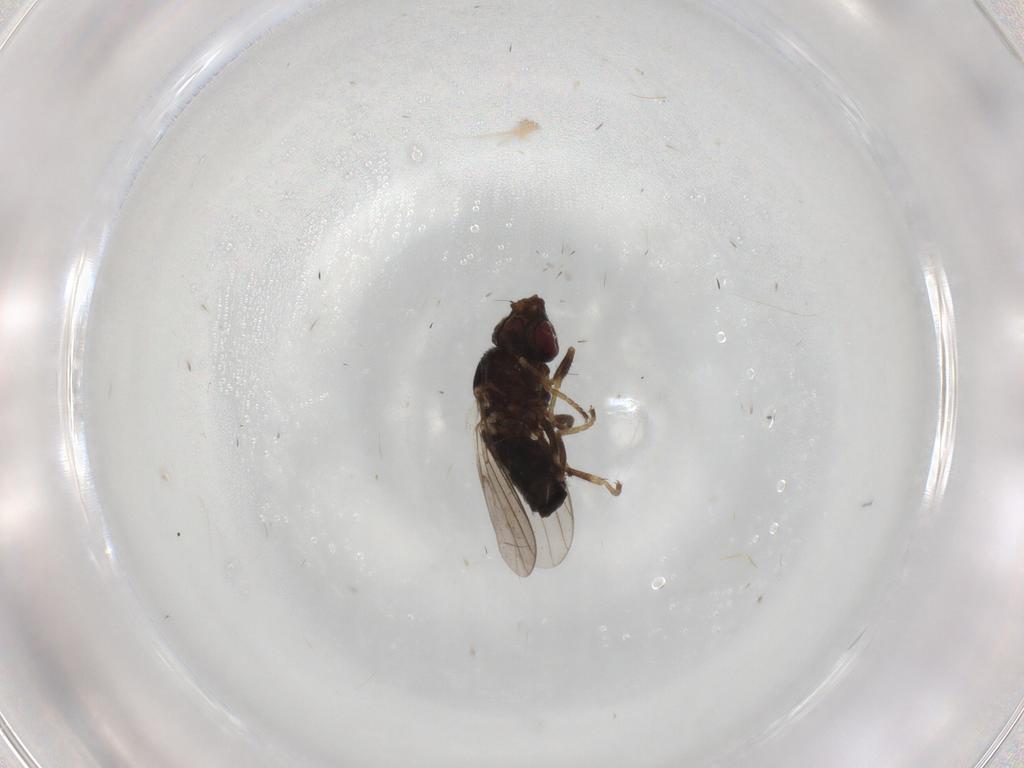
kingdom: Animalia
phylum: Arthropoda
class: Insecta
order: Diptera
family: Chloropidae
